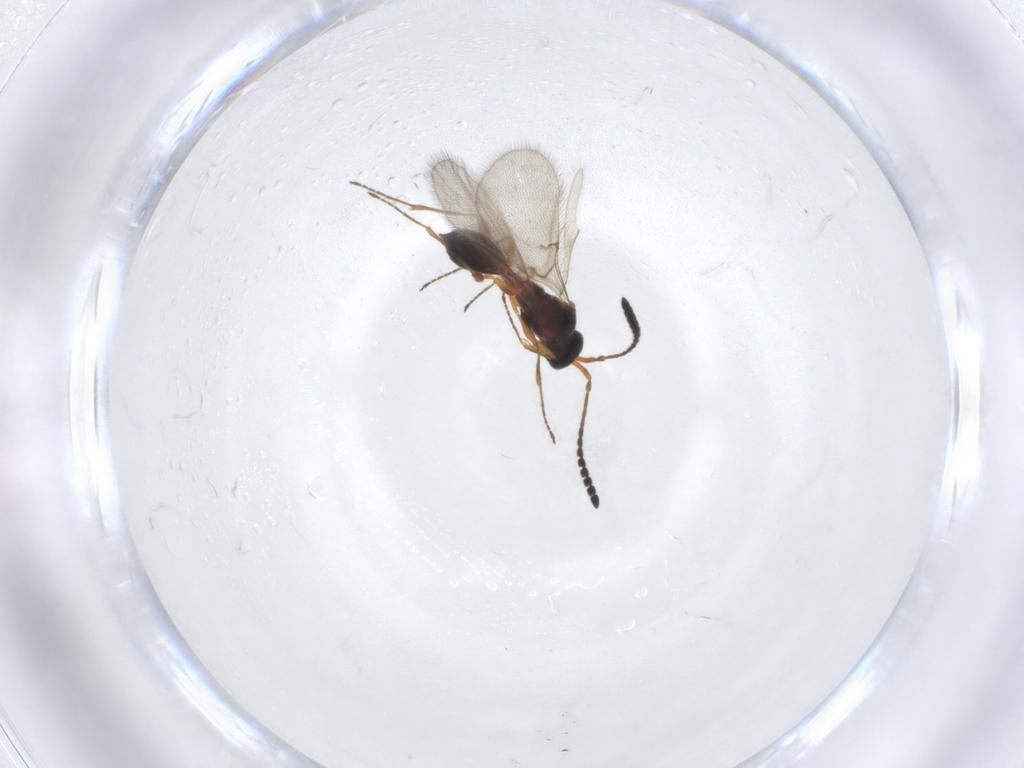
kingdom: Animalia
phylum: Arthropoda
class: Insecta
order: Hymenoptera
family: Diapriidae
